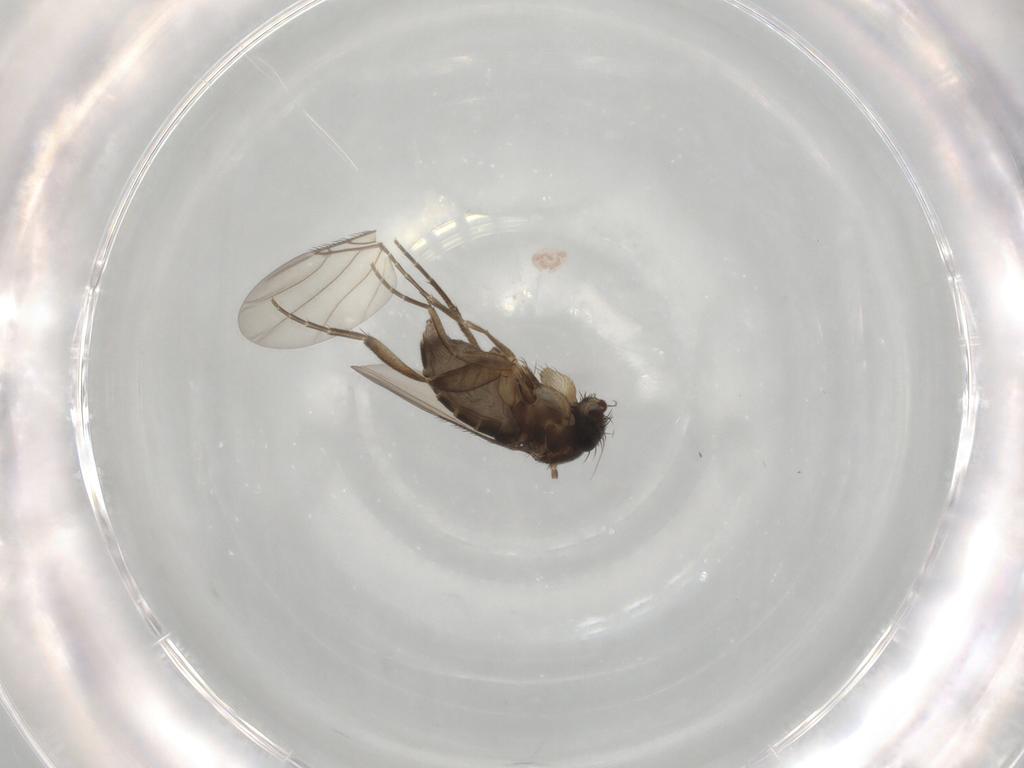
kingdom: Animalia
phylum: Arthropoda
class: Insecta
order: Diptera
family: Phoridae
